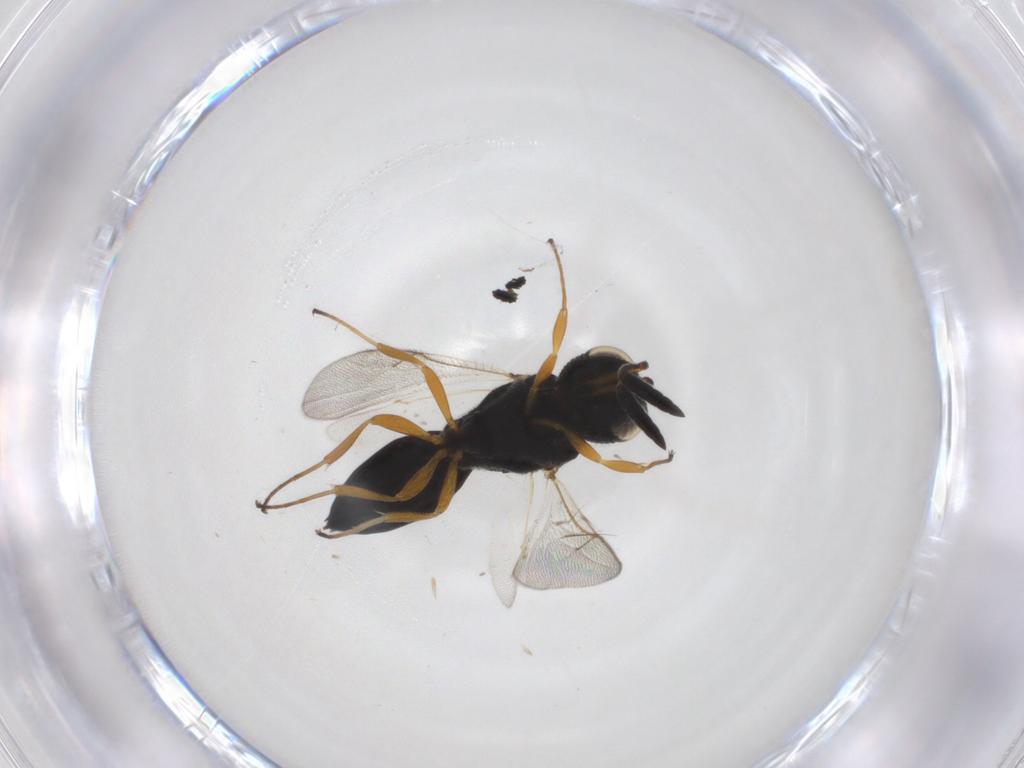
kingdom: Animalia
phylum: Arthropoda
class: Insecta
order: Hymenoptera
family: Scelionidae
